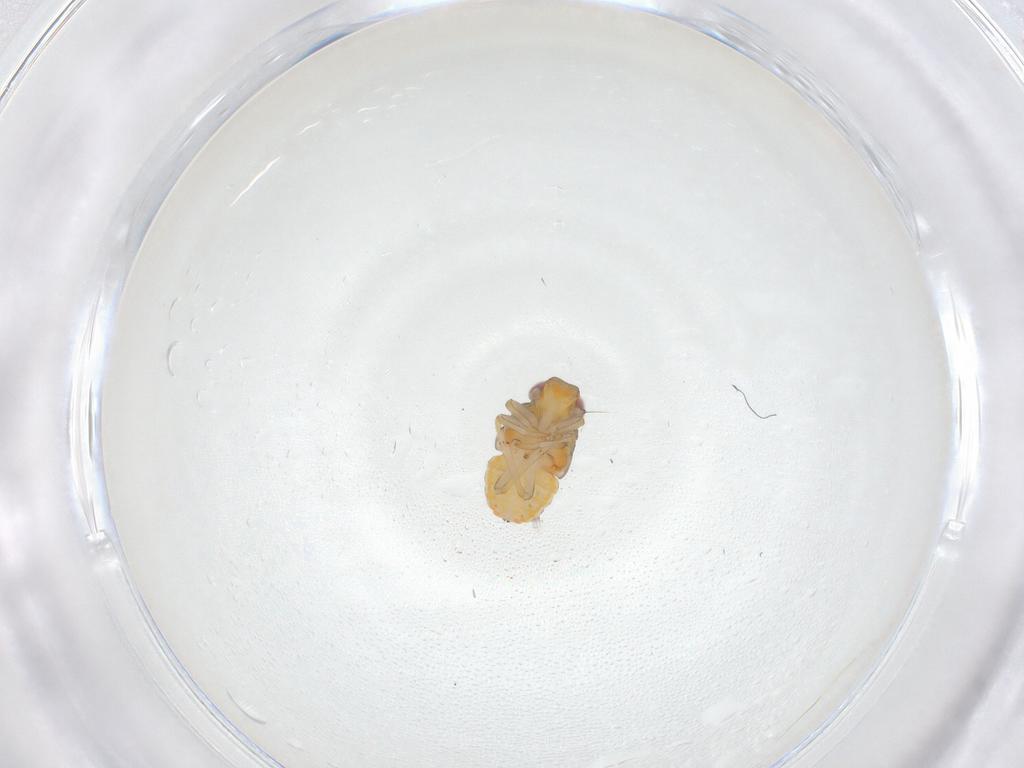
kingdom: Animalia
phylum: Arthropoda
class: Insecta
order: Hemiptera
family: Issidae
